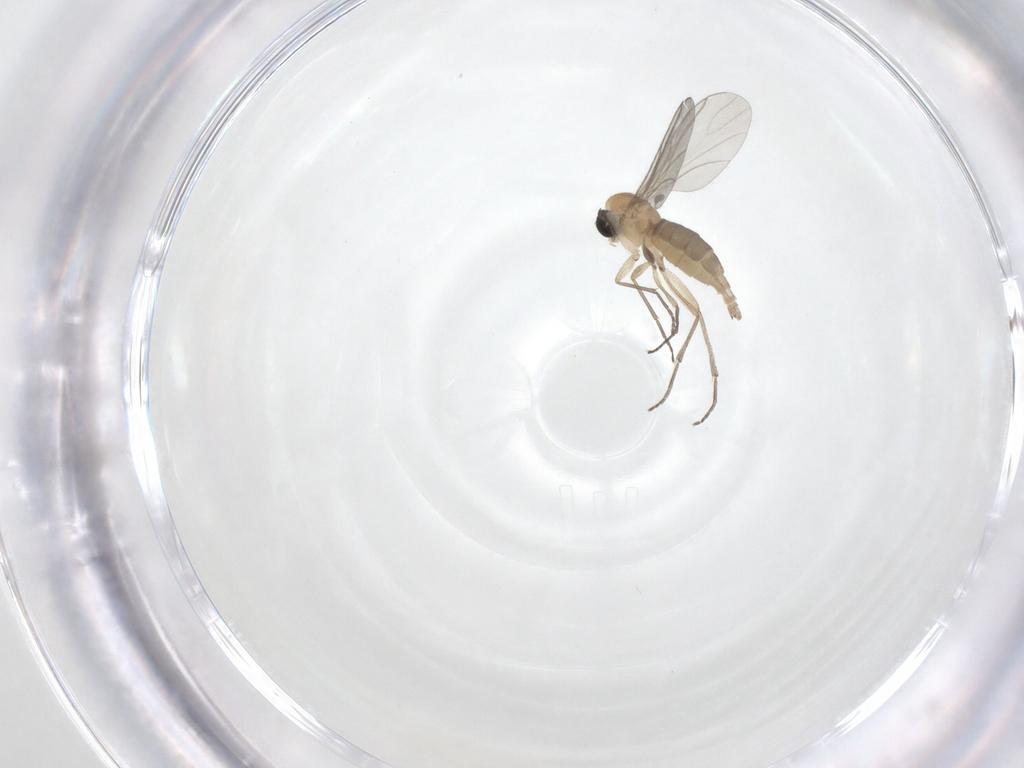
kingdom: Animalia
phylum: Arthropoda
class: Insecta
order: Diptera
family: Sciaridae
